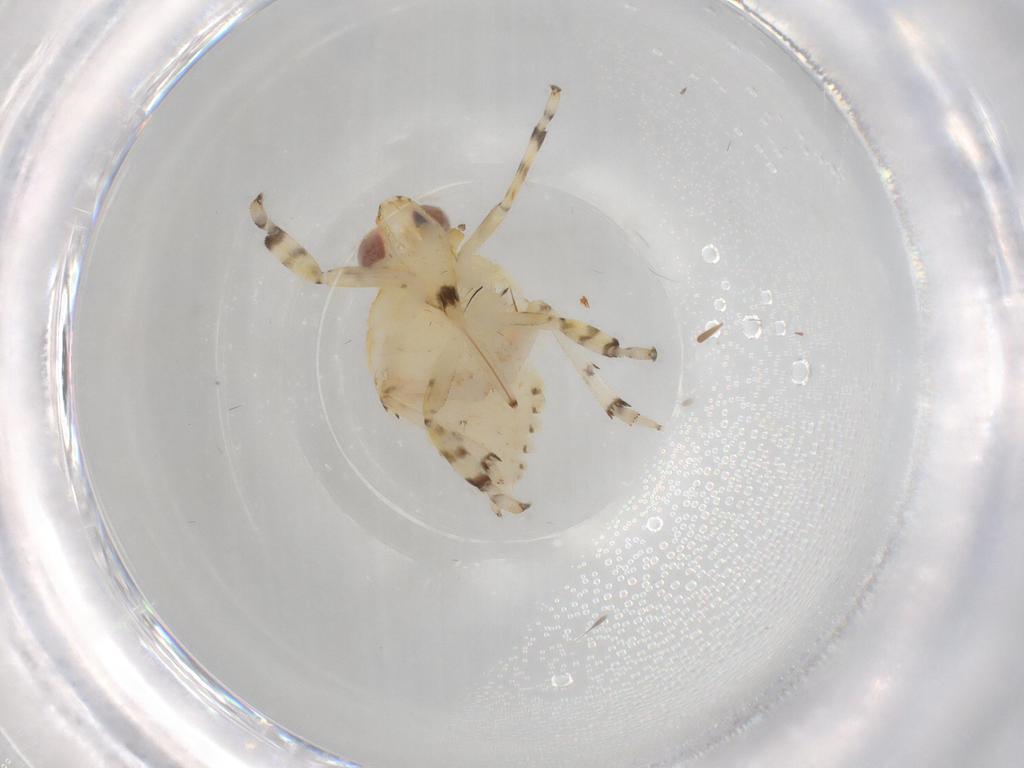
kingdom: Animalia
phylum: Arthropoda
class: Insecta
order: Hemiptera
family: Issidae
